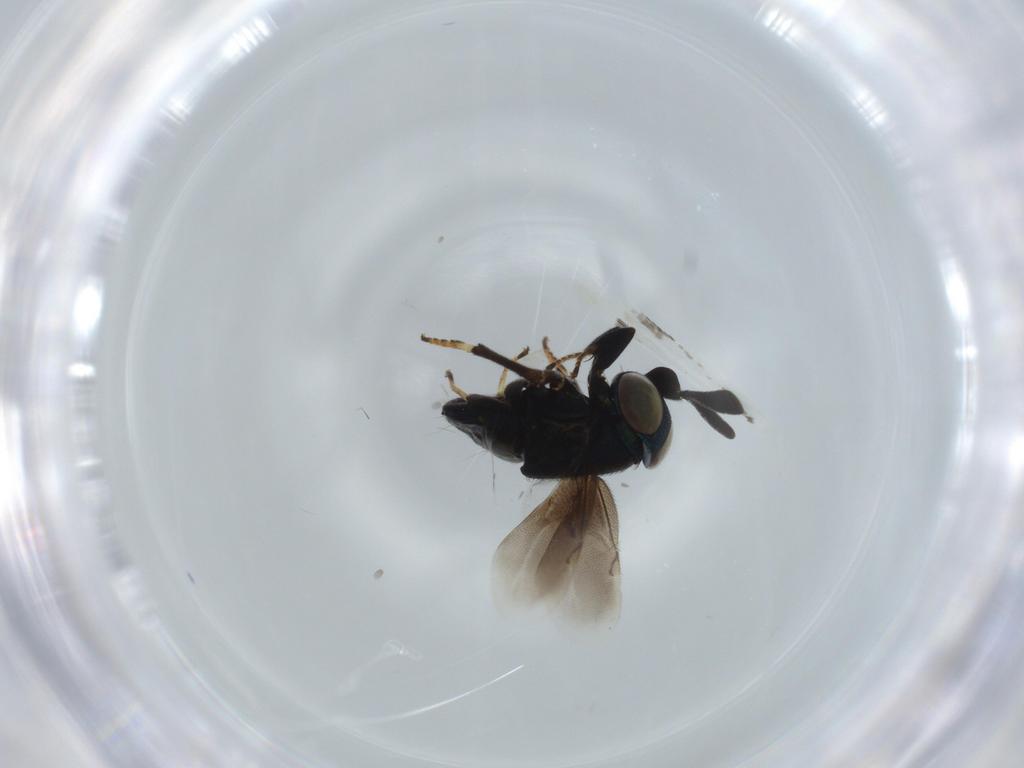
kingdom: Animalia
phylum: Arthropoda
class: Insecta
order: Hymenoptera
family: Encyrtidae
